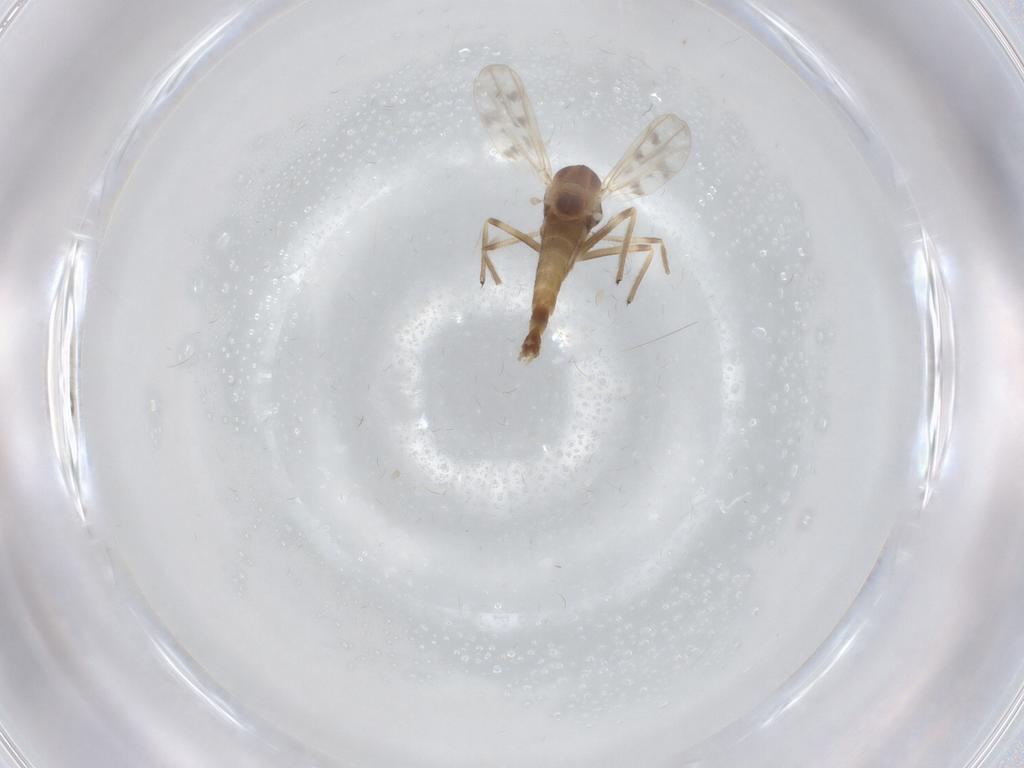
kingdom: Animalia
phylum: Arthropoda
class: Insecta
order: Diptera
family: Chironomidae
